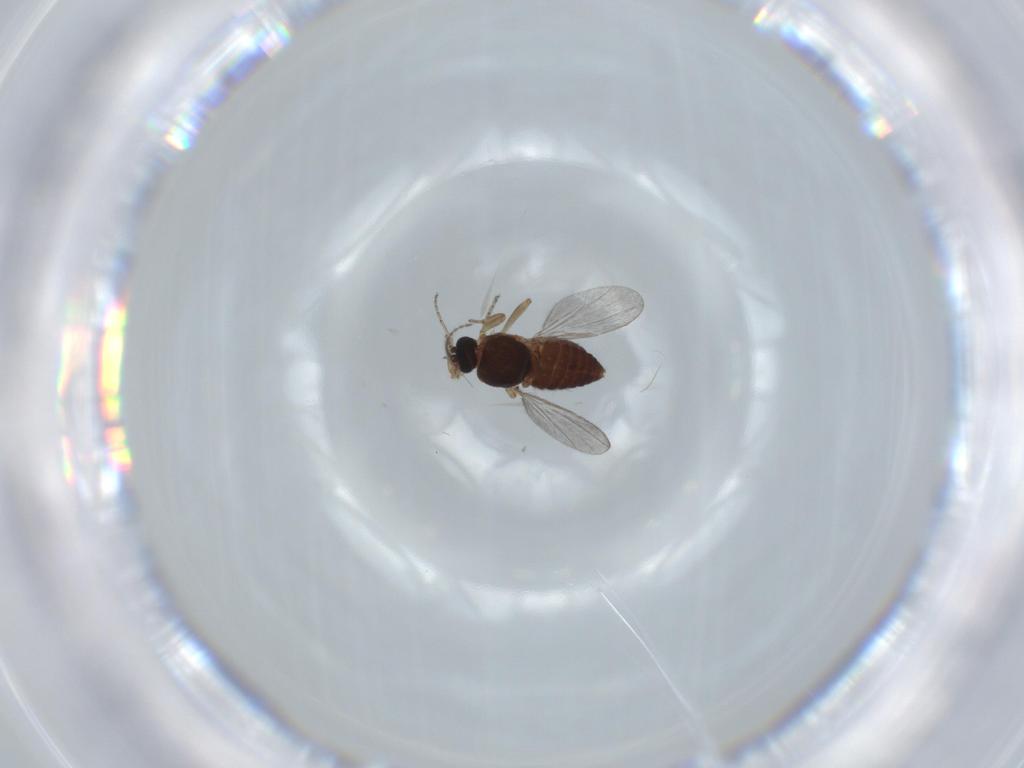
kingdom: Animalia
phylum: Arthropoda
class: Insecta
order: Diptera
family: Ceratopogonidae
